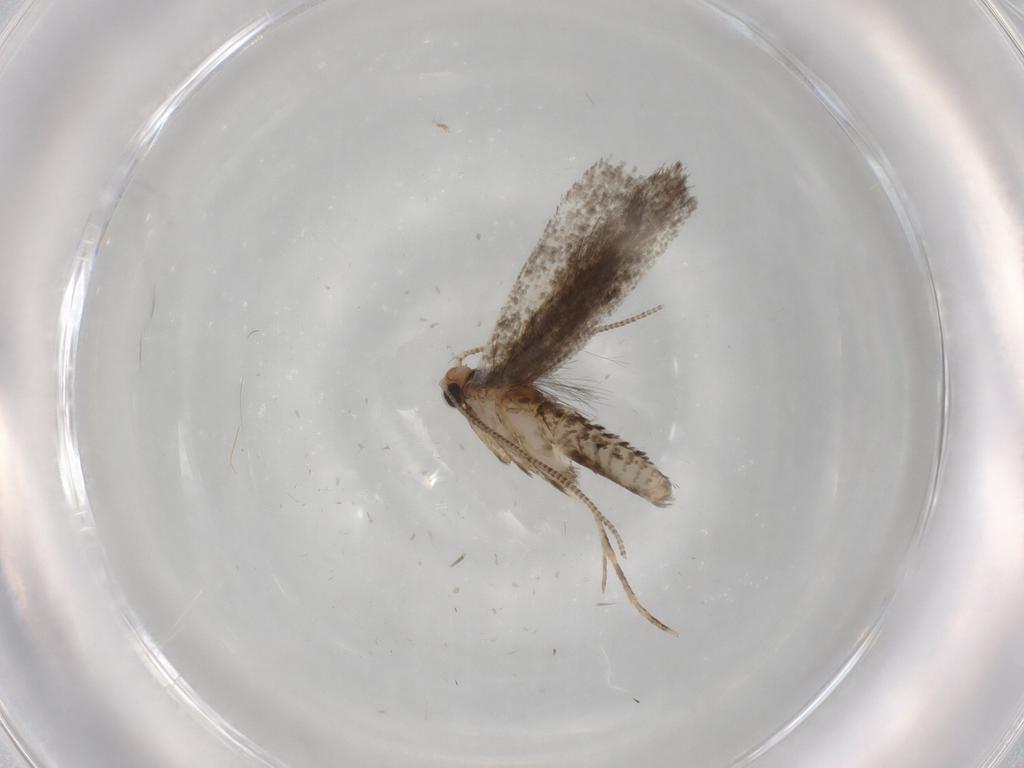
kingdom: Animalia
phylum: Arthropoda
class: Insecta
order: Lepidoptera
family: Tineidae
